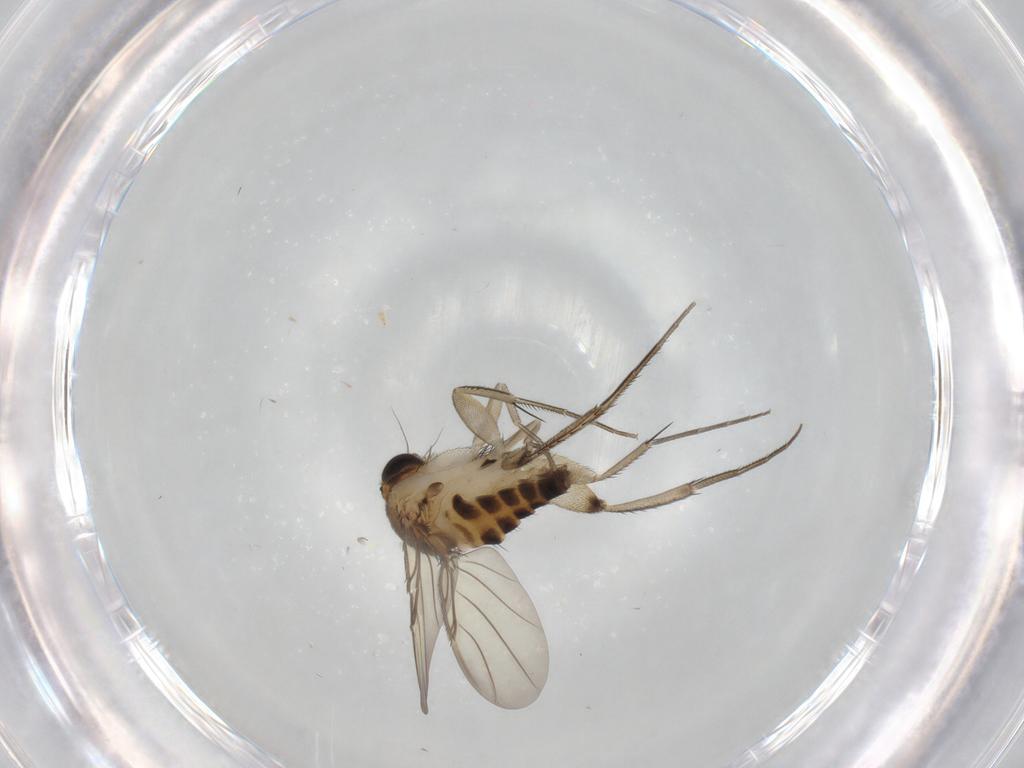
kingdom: Animalia
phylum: Arthropoda
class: Insecta
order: Diptera
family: Phoridae
